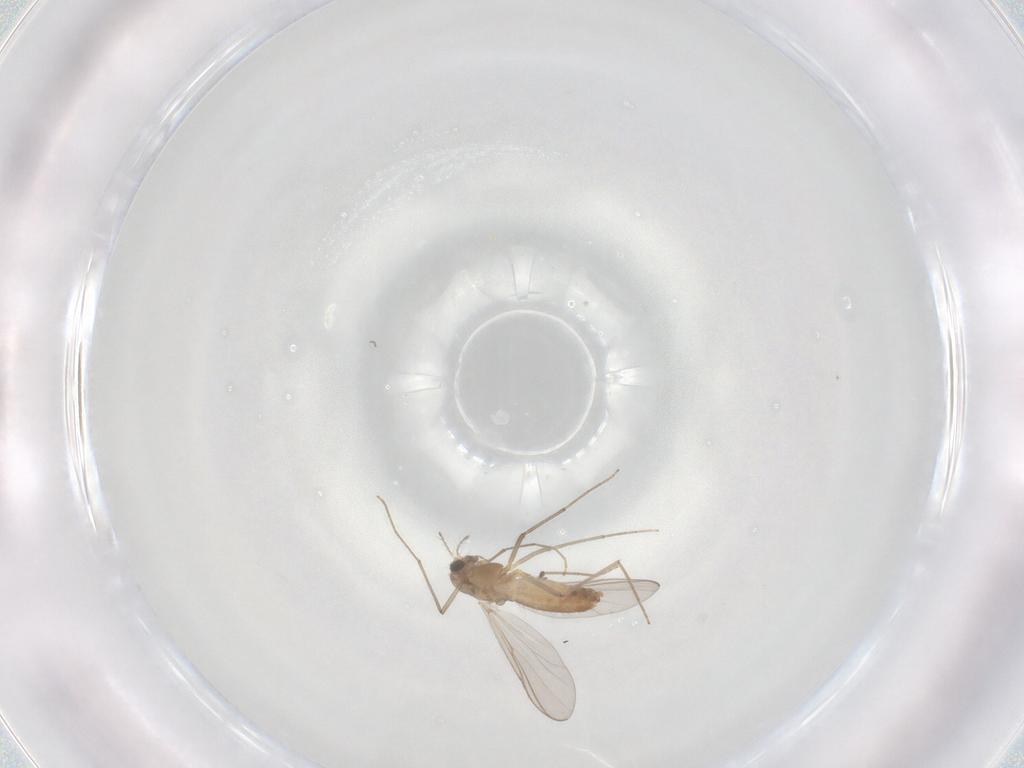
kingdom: Animalia
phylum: Arthropoda
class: Insecta
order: Diptera
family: Chironomidae
